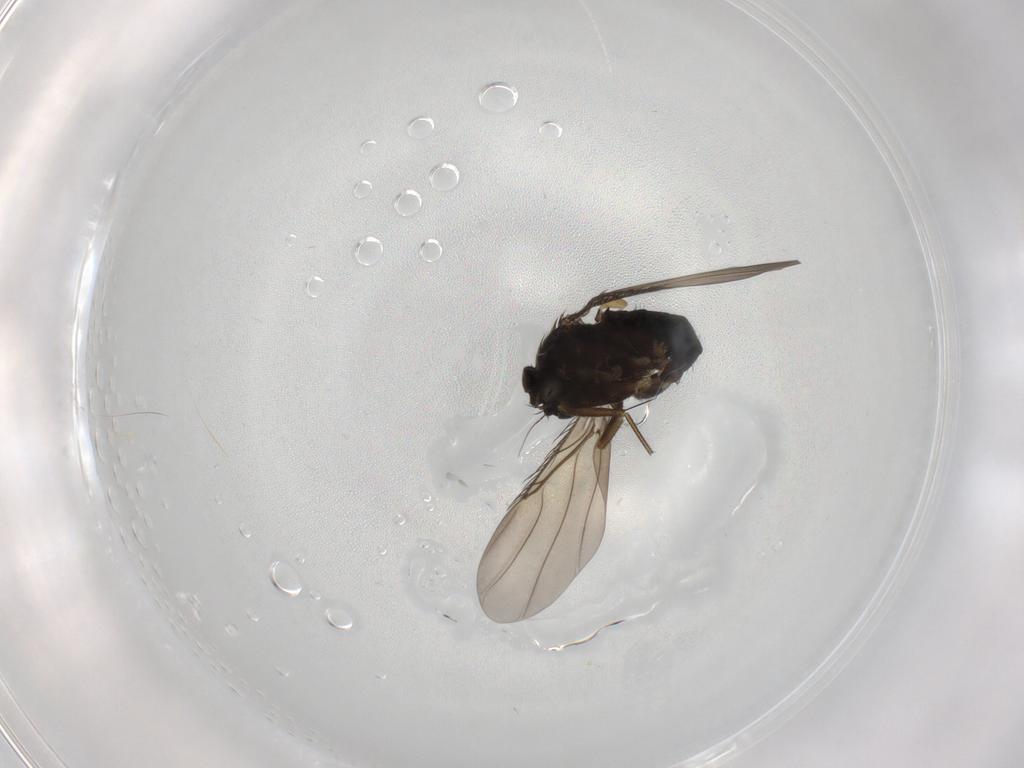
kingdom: Animalia
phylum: Arthropoda
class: Insecta
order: Diptera
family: Phoridae
